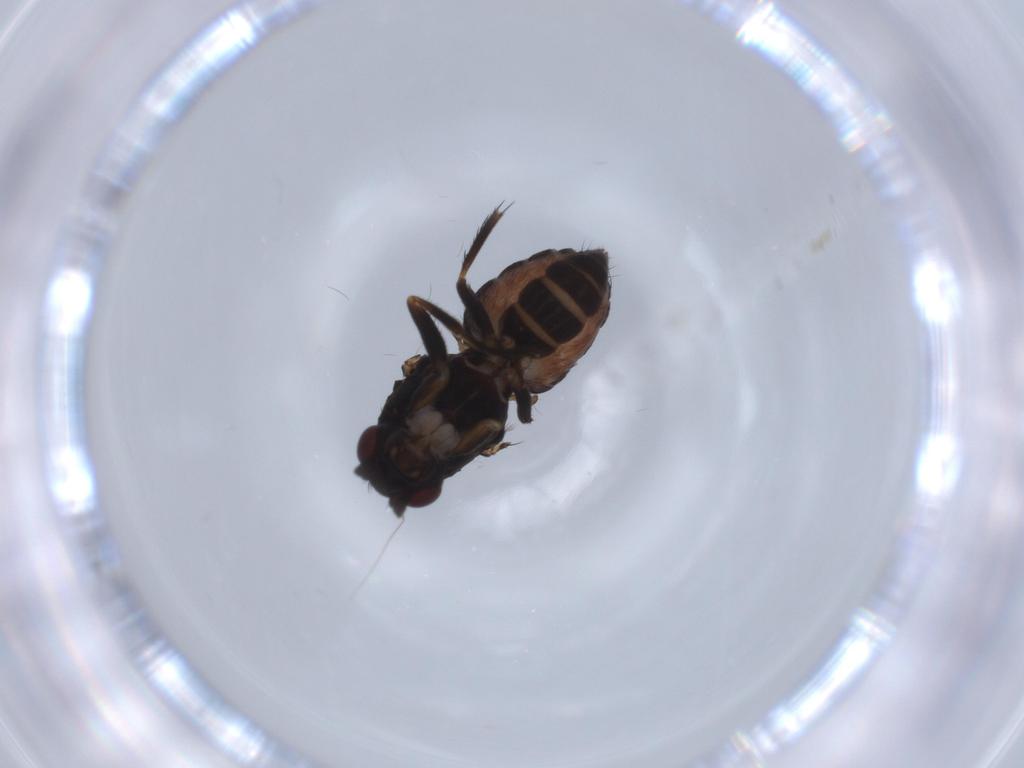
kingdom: Animalia
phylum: Arthropoda
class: Insecta
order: Diptera
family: Sphaeroceridae
